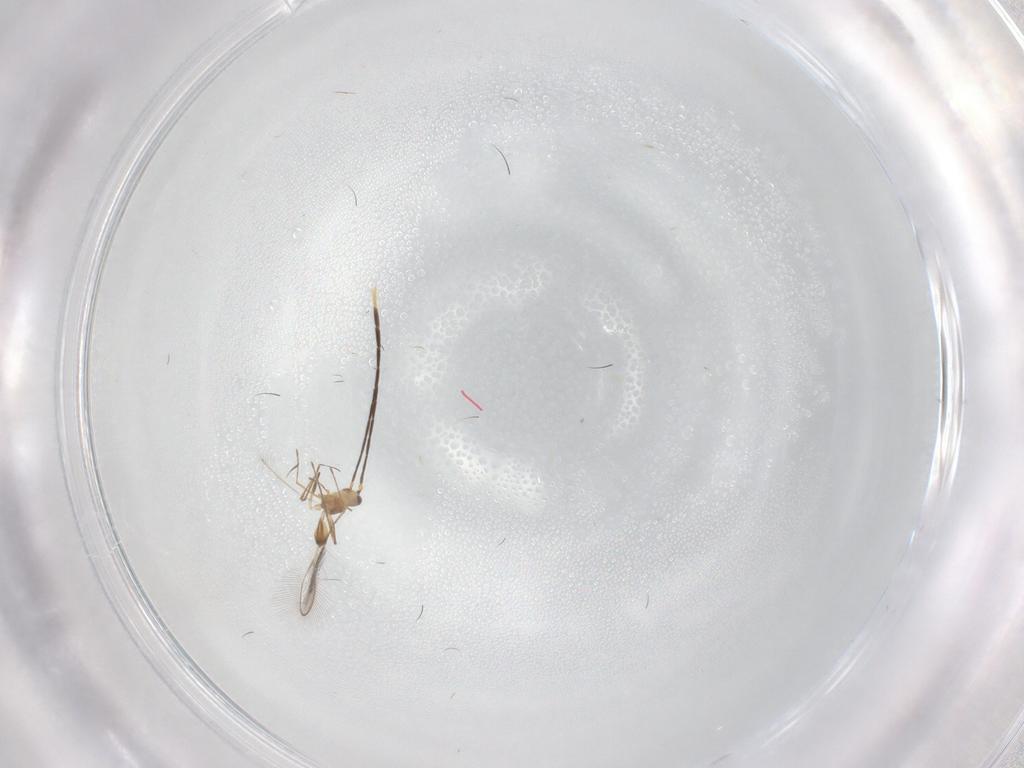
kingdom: Animalia
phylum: Arthropoda
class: Insecta
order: Hymenoptera
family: Mymaridae
